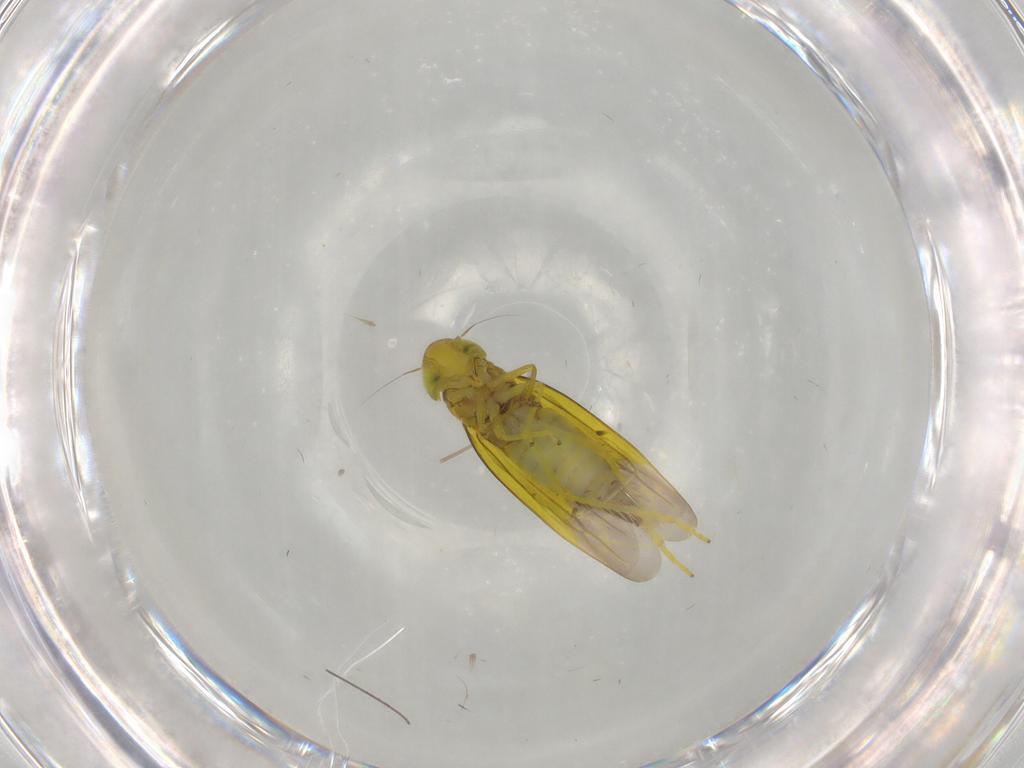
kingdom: Animalia
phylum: Arthropoda
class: Insecta
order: Hemiptera
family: Cicadellidae
